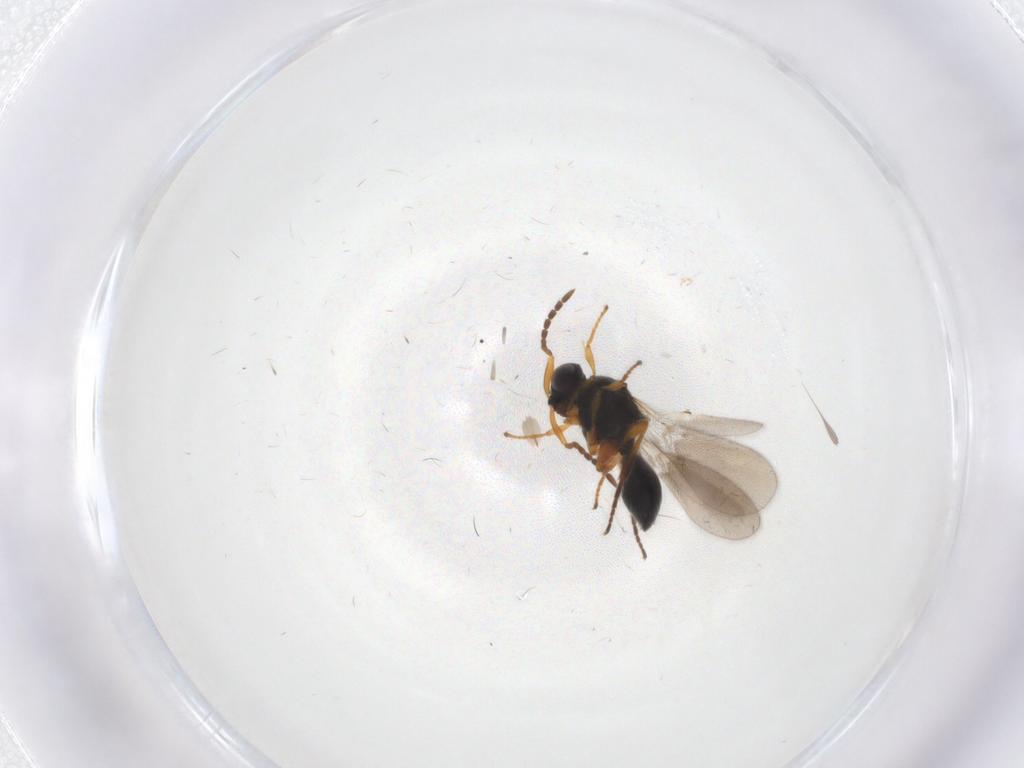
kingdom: Animalia
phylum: Arthropoda
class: Insecta
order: Hymenoptera
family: Platygastridae
